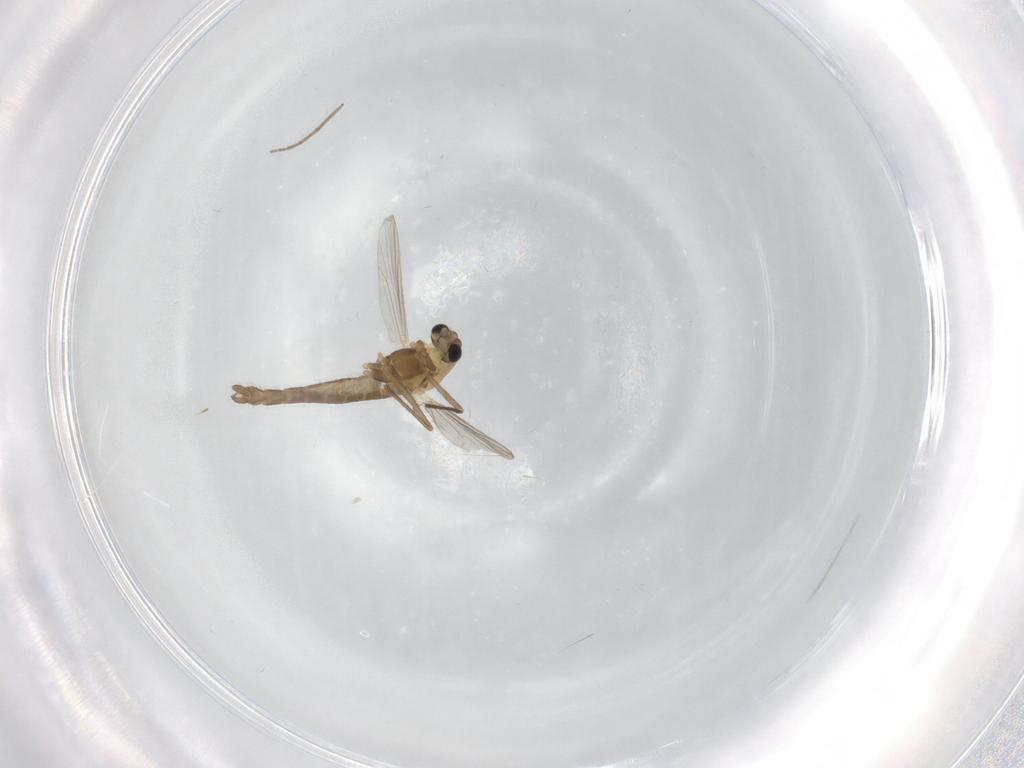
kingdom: Animalia
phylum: Arthropoda
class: Insecta
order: Diptera
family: Chironomidae
